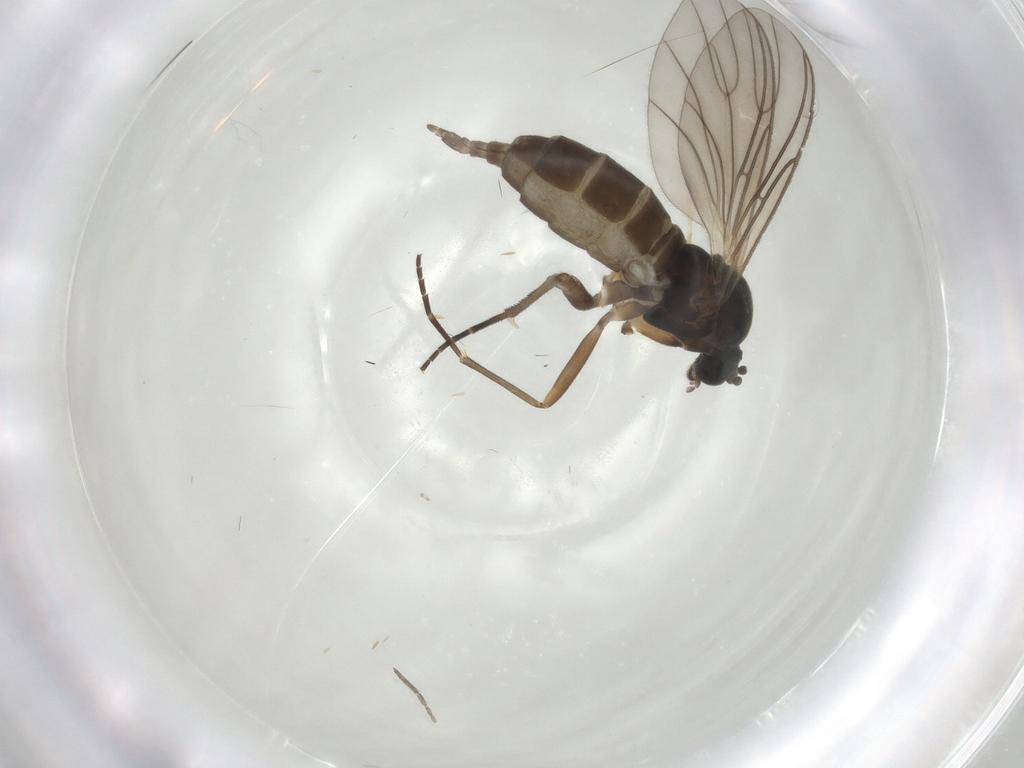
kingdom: Animalia
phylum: Arthropoda
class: Insecta
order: Diptera
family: Sciaridae
